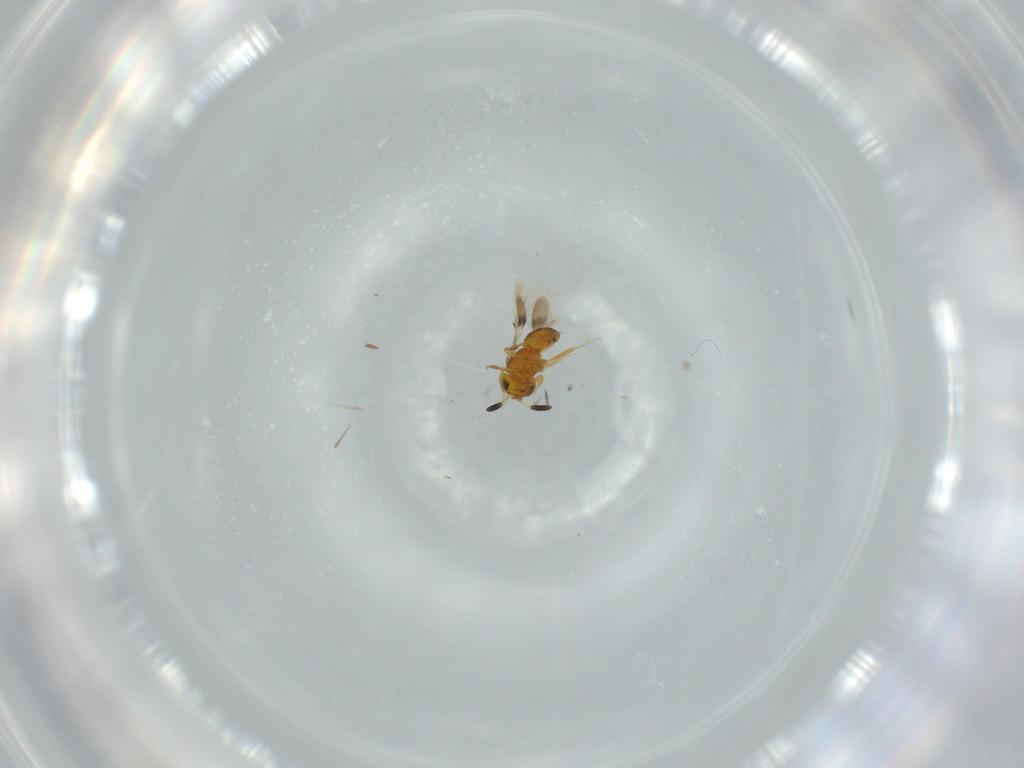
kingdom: Animalia
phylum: Arthropoda
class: Insecta
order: Hymenoptera
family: Scelionidae
